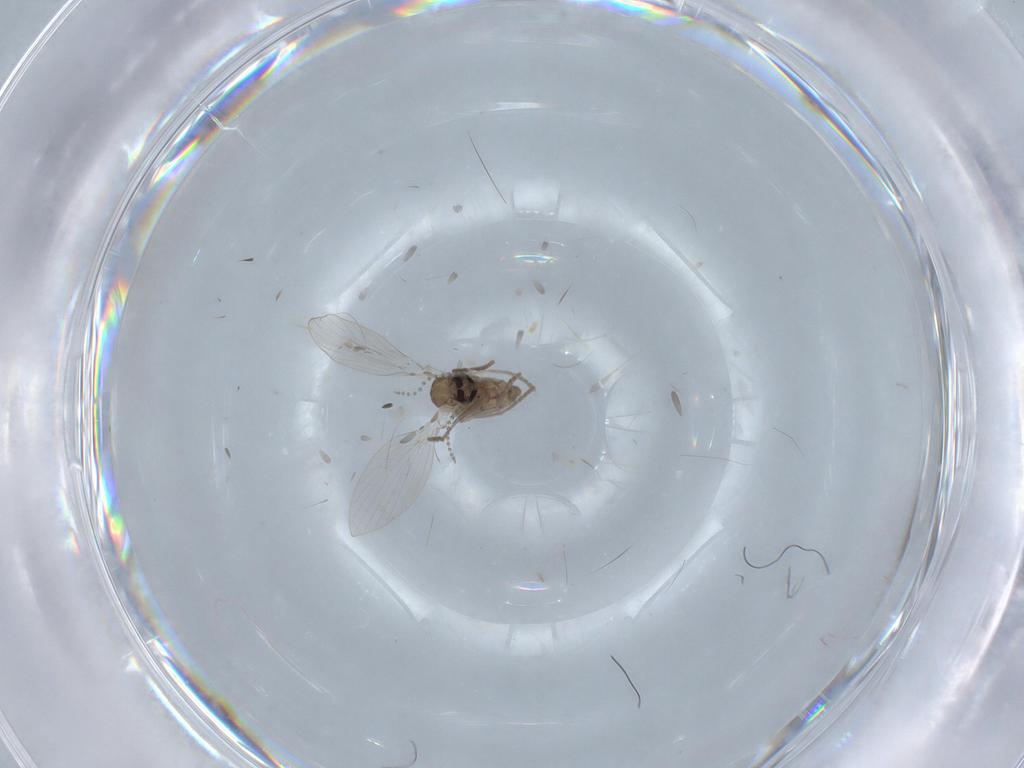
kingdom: Animalia
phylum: Arthropoda
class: Insecta
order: Diptera
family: Psychodidae
